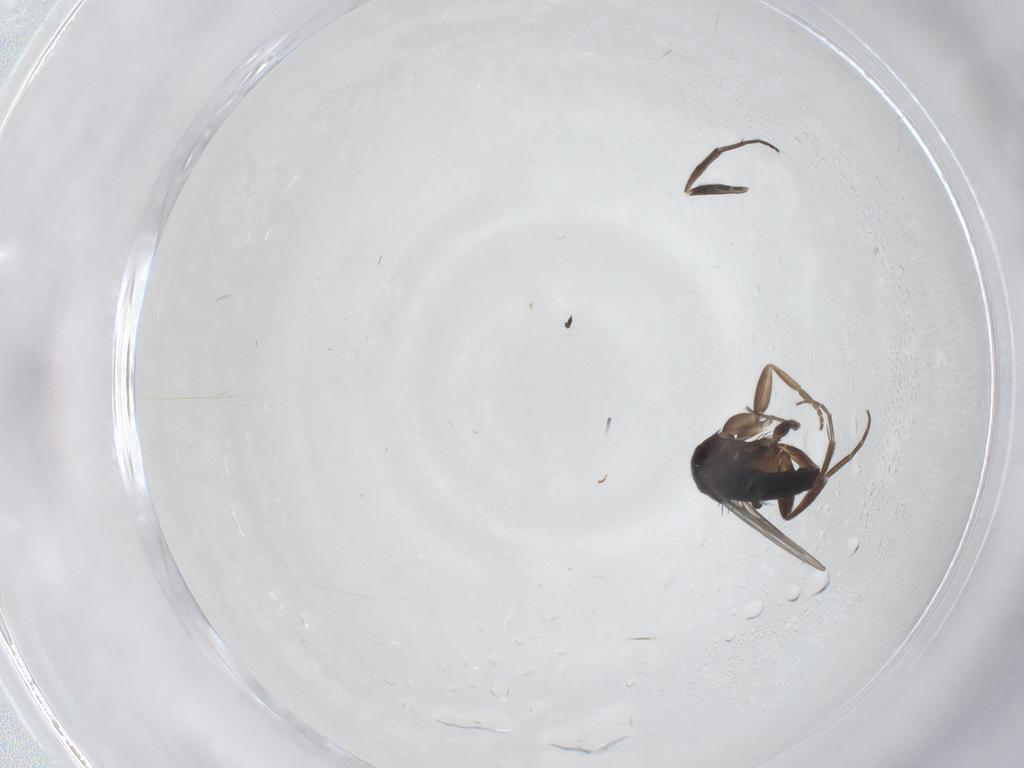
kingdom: Animalia
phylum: Arthropoda
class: Insecta
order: Diptera
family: Phoridae
